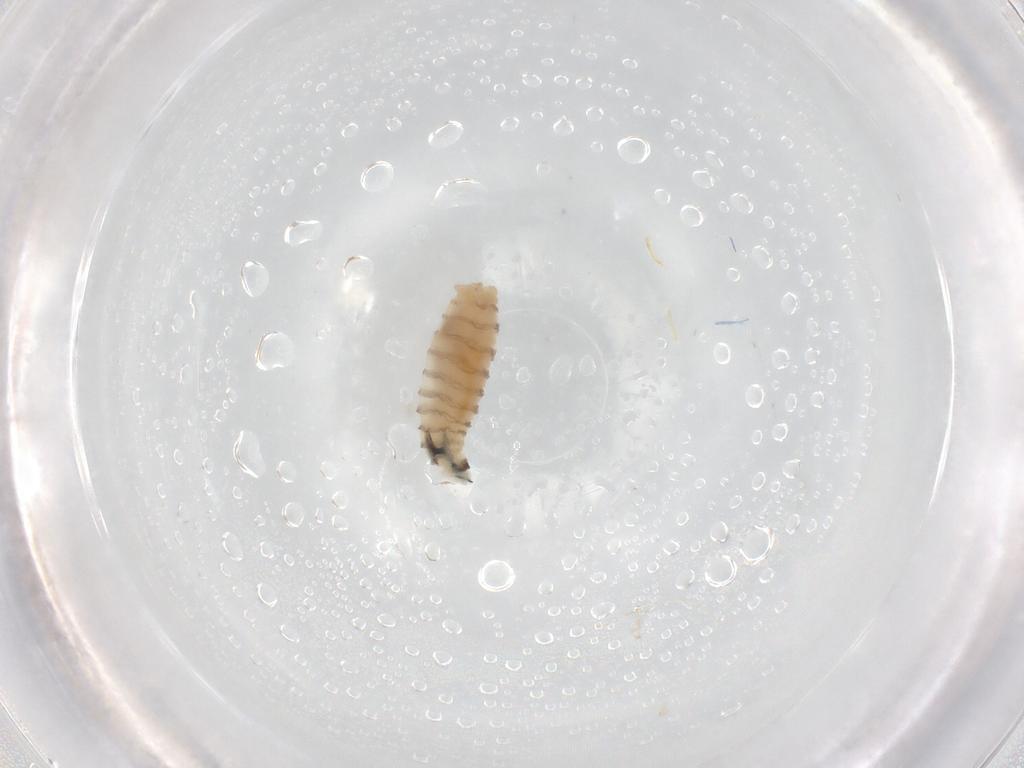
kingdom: Animalia
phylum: Arthropoda
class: Insecta
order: Diptera
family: Sarcophagidae
